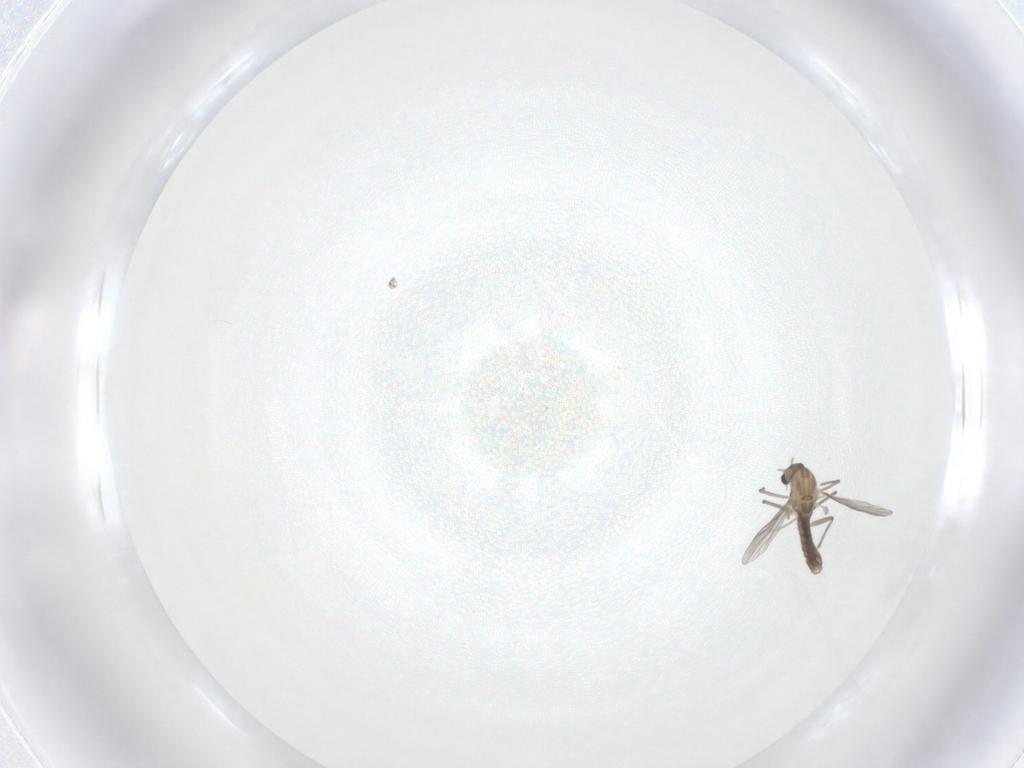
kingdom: Animalia
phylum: Arthropoda
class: Insecta
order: Diptera
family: Chironomidae
